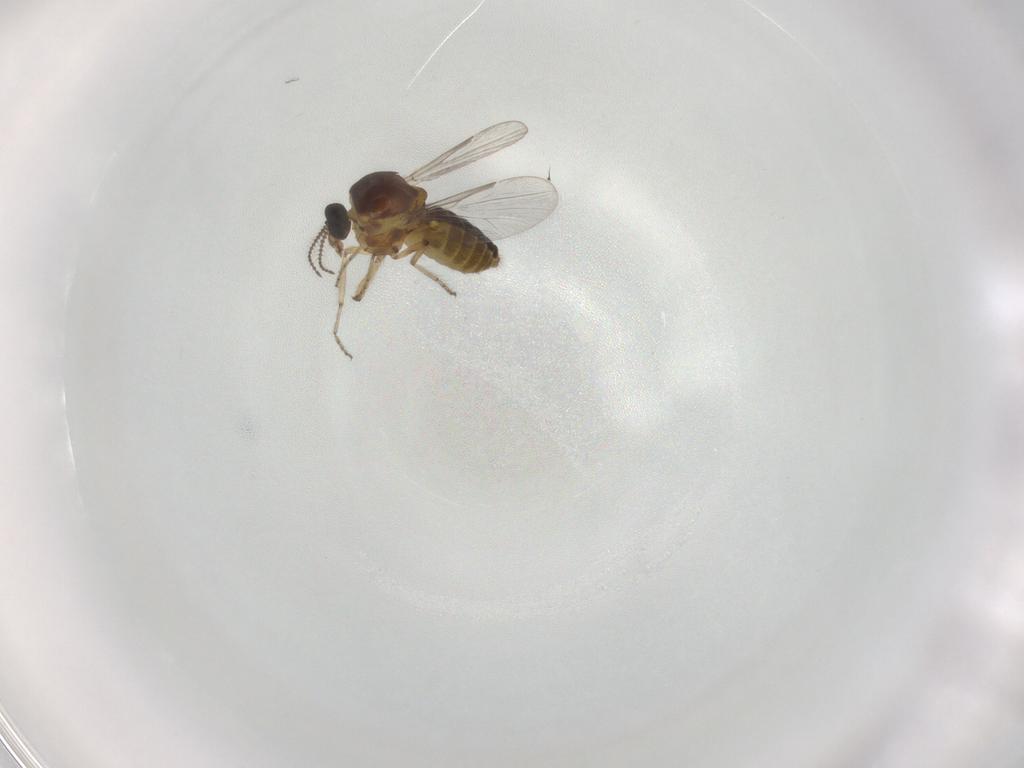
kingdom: Animalia
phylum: Arthropoda
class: Insecta
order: Diptera
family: Ceratopogonidae
